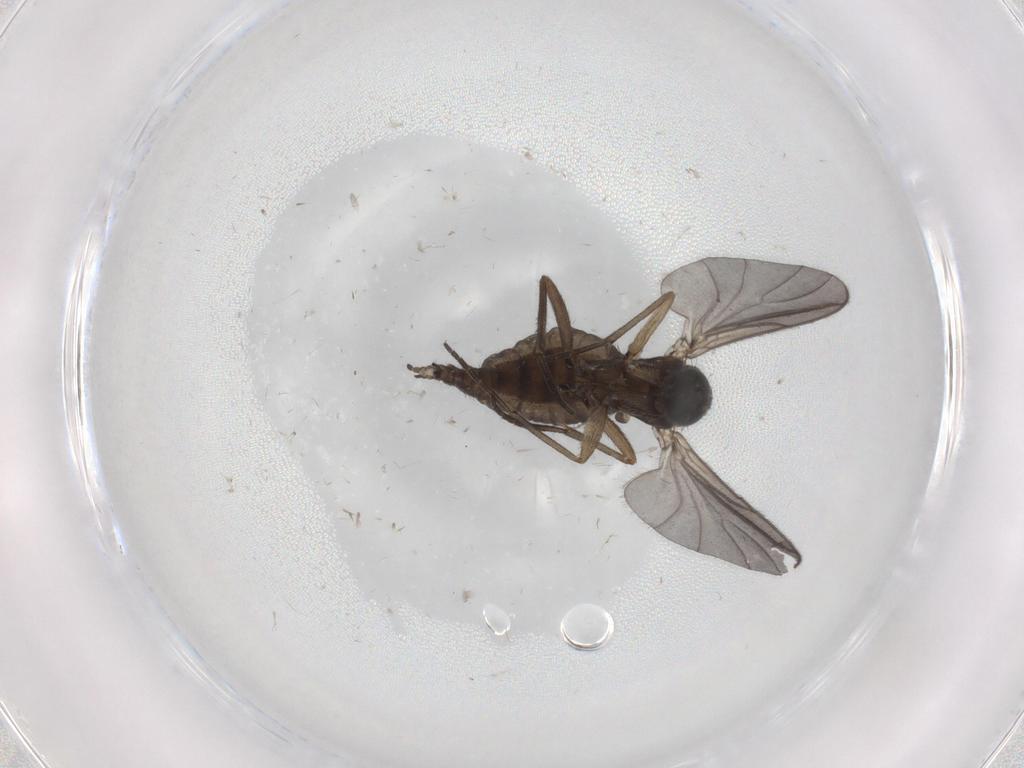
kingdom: Animalia
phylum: Arthropoda
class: Insecta
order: Diptera
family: Sciaridae
